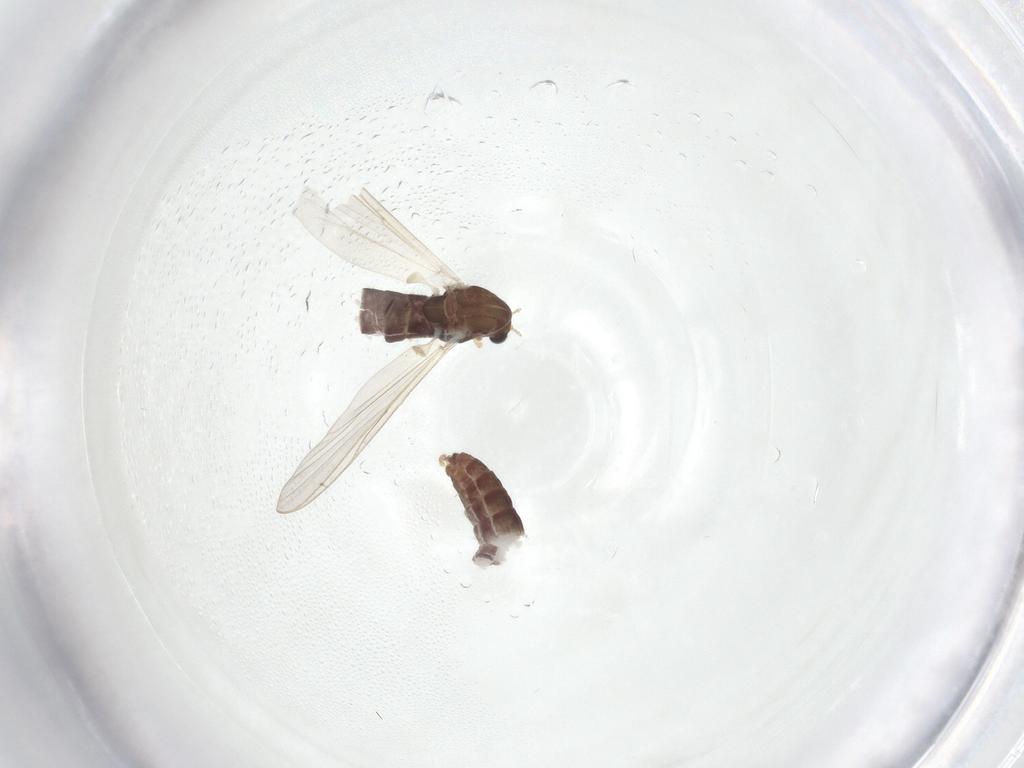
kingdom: Animalia
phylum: Arthropoda
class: Insecta
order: Diptera
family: Chironomidae
